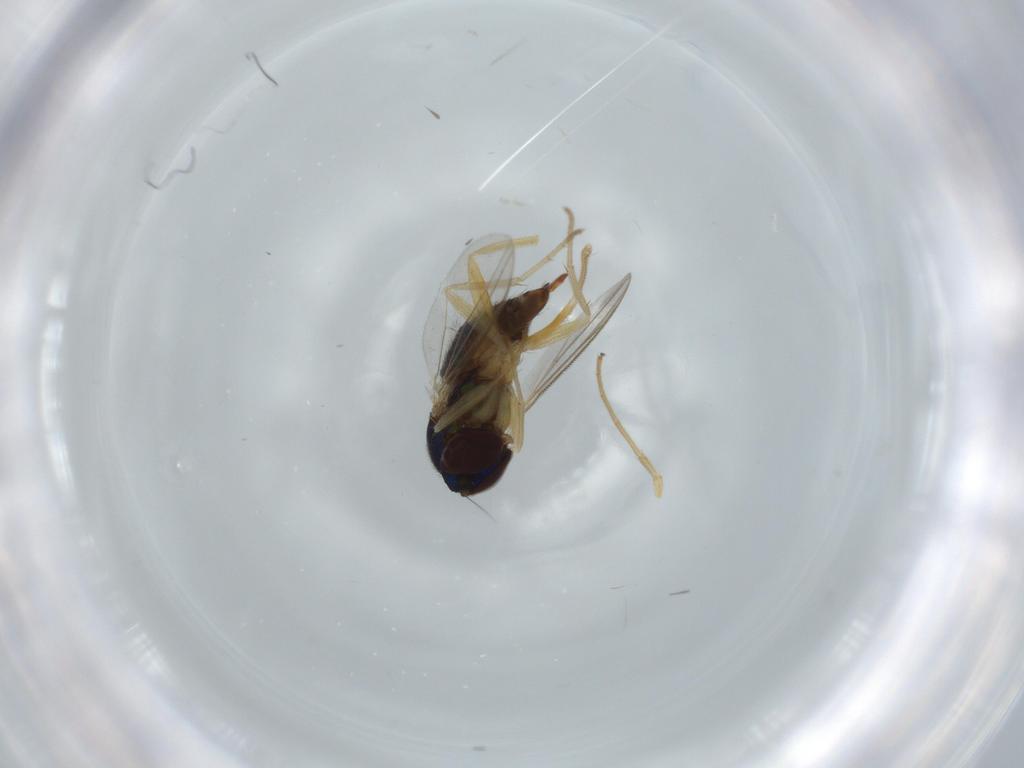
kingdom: Animalia
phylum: Arthropoda
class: Insecta
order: Diptera
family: Dolichopodidae
